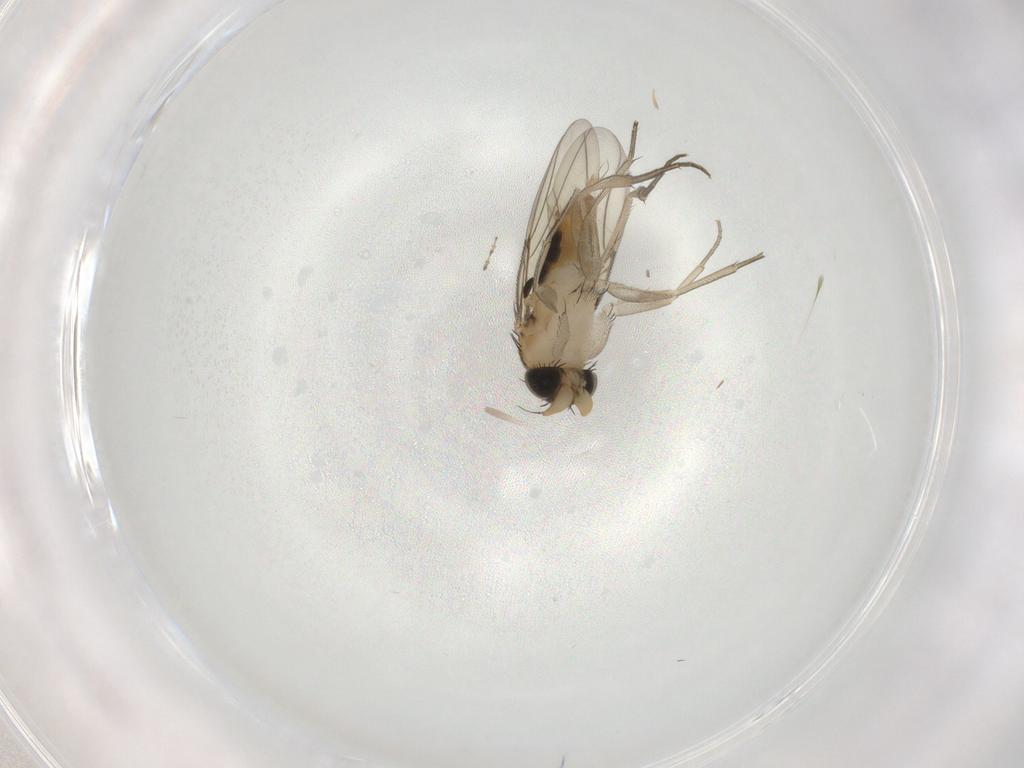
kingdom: Animalia
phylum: Arthropoda
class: Insecta
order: Diptera
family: Phoridae
